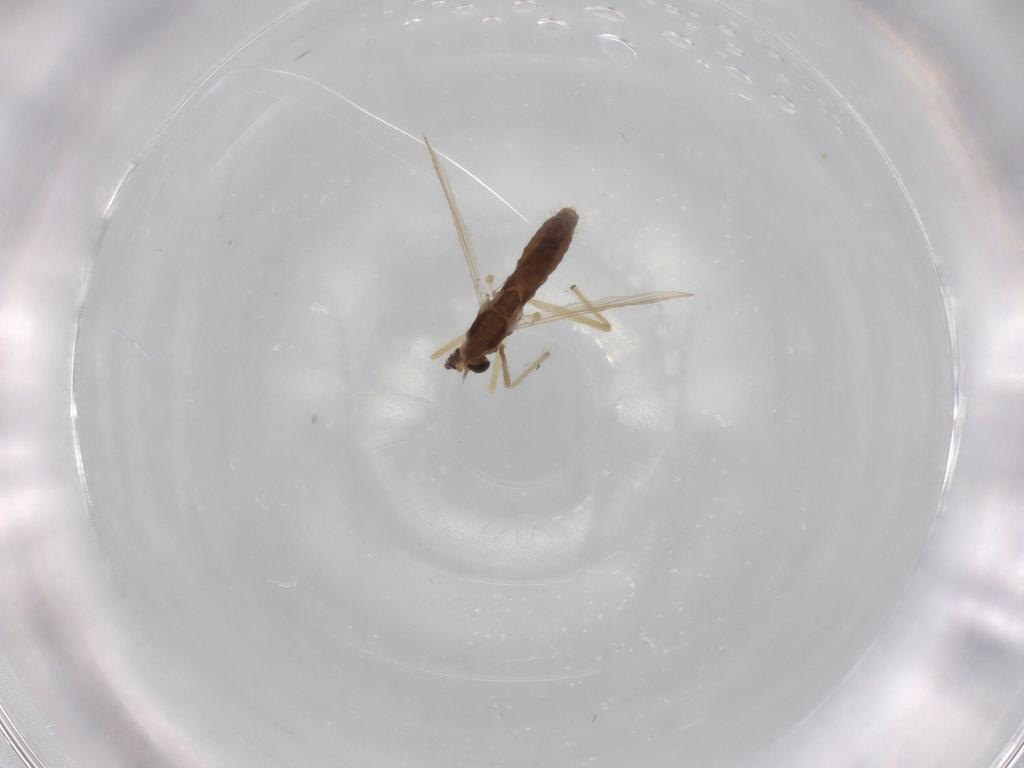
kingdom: Animalia
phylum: Arthropoda
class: Insecta
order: Diptera
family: Chironomidae
